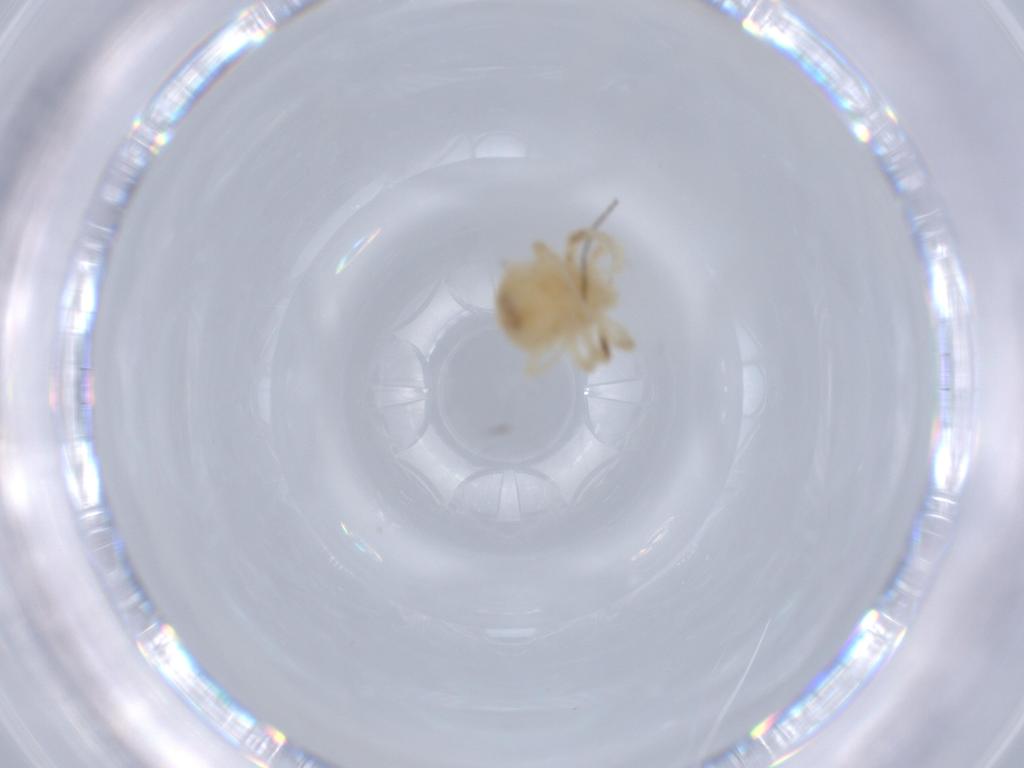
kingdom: Animalia
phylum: Arthropoda
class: Arachnida
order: Trombidiformes
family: Anystidae
